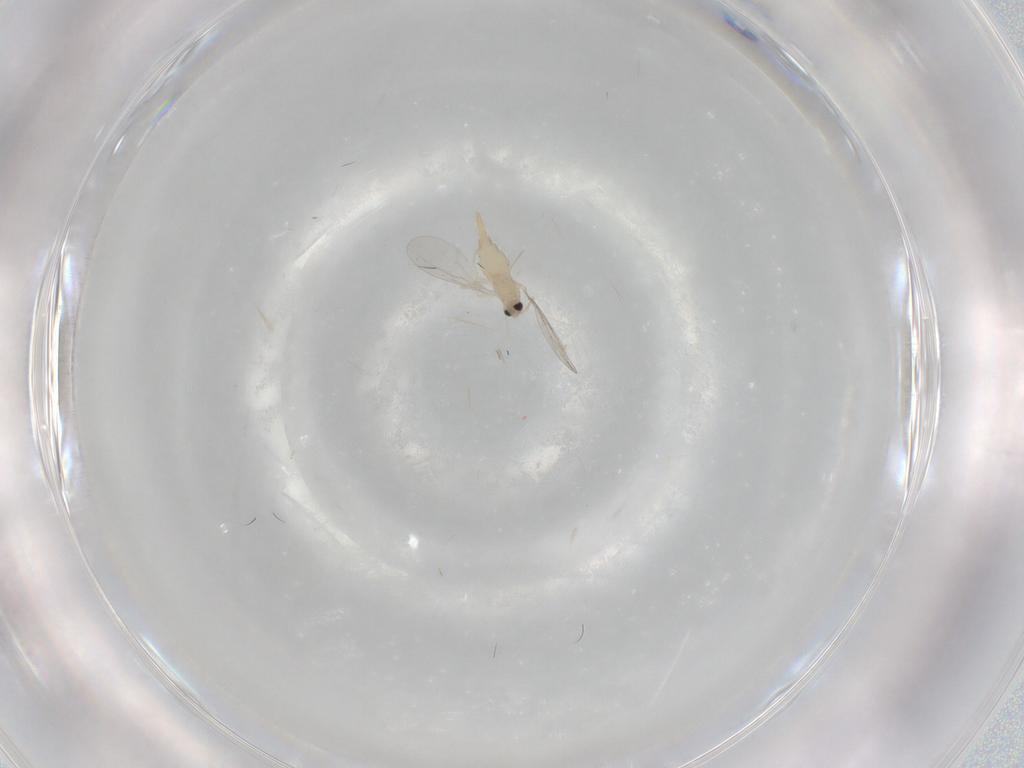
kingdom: Animalia
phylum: Arthropoda
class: Insecta
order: Diptera
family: Cecidomyiidae
